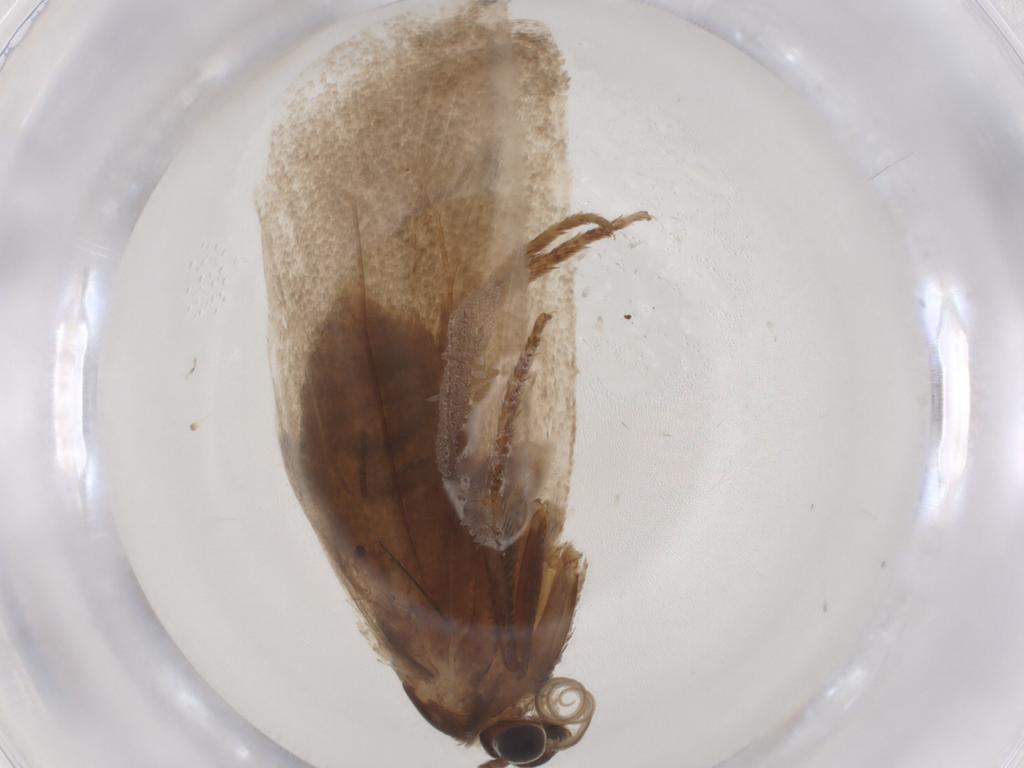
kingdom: Animalia
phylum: Arthropoda
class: Insecta
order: Lepidoptera
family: Tortricidae
